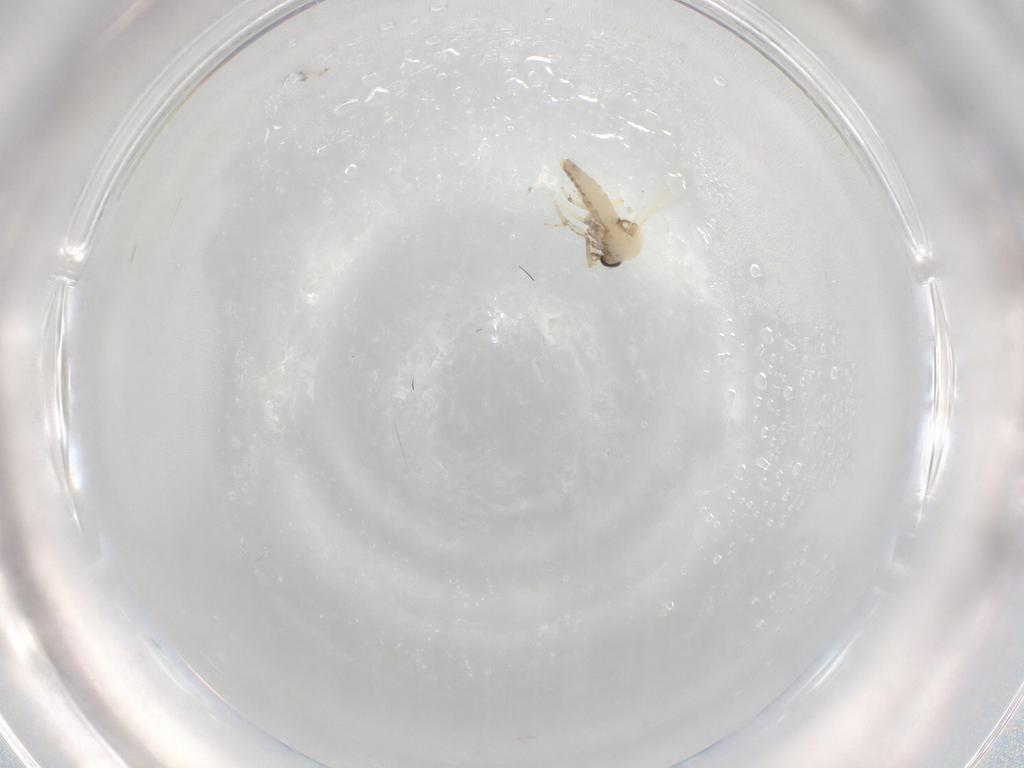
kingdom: Animalia
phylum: Arthropoda
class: Insecta
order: Diptera
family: Ceratopogonidae
